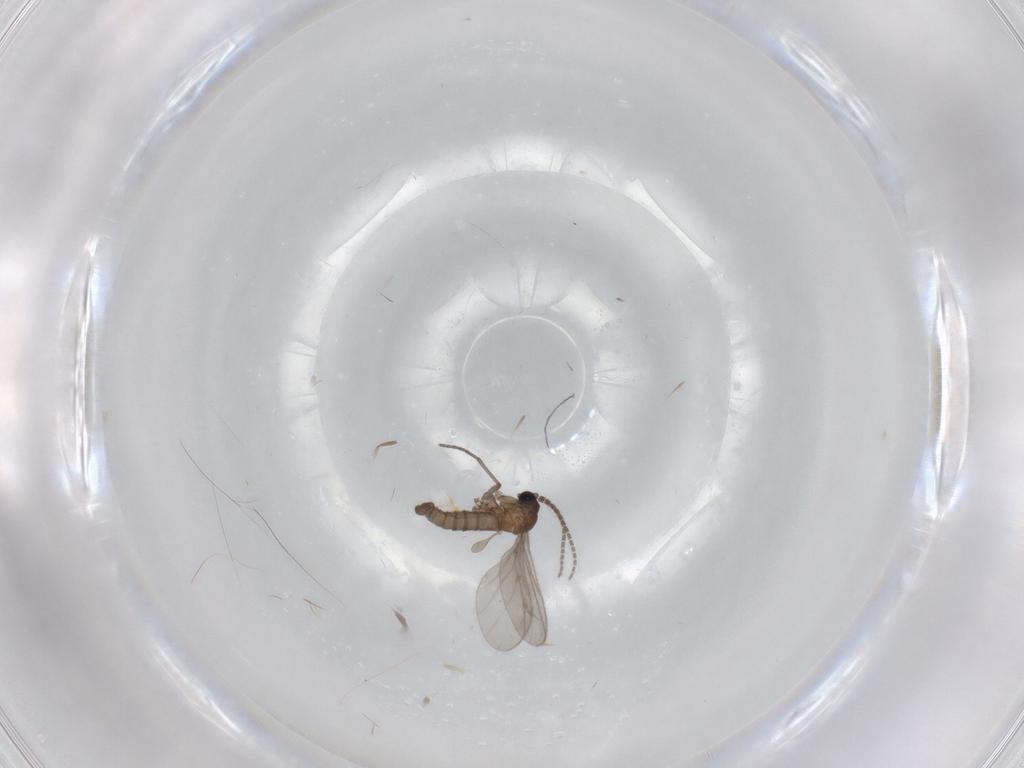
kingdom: Animalia
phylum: Arthropoda
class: Insecta
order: Diptera
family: Sciaridae
